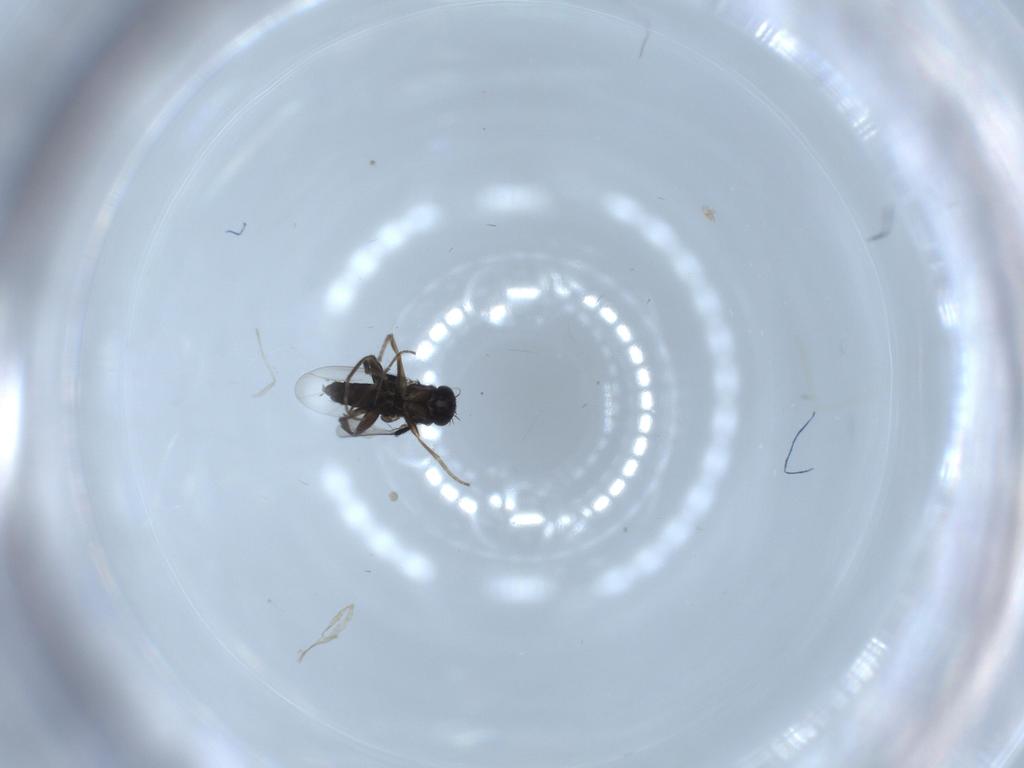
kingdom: Animalia
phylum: Arthropoda
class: Insecta
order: Diptera
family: Phoridae
